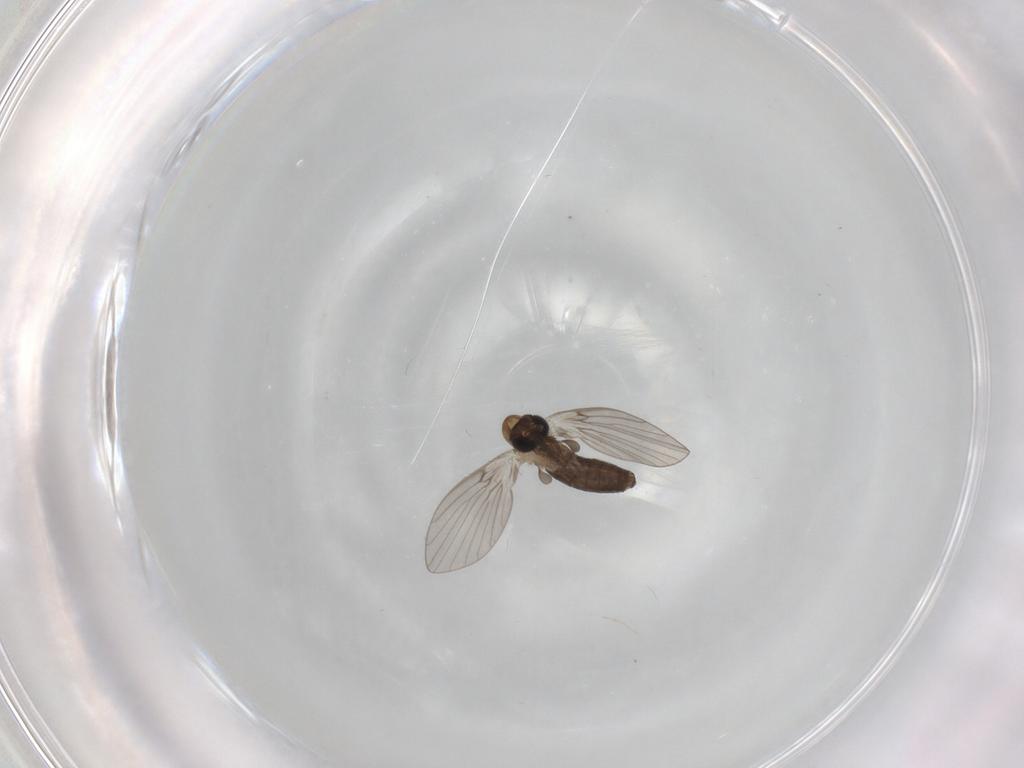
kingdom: Animalia
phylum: Arthropoda
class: Insecta
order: Diptera
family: Psychodidae
